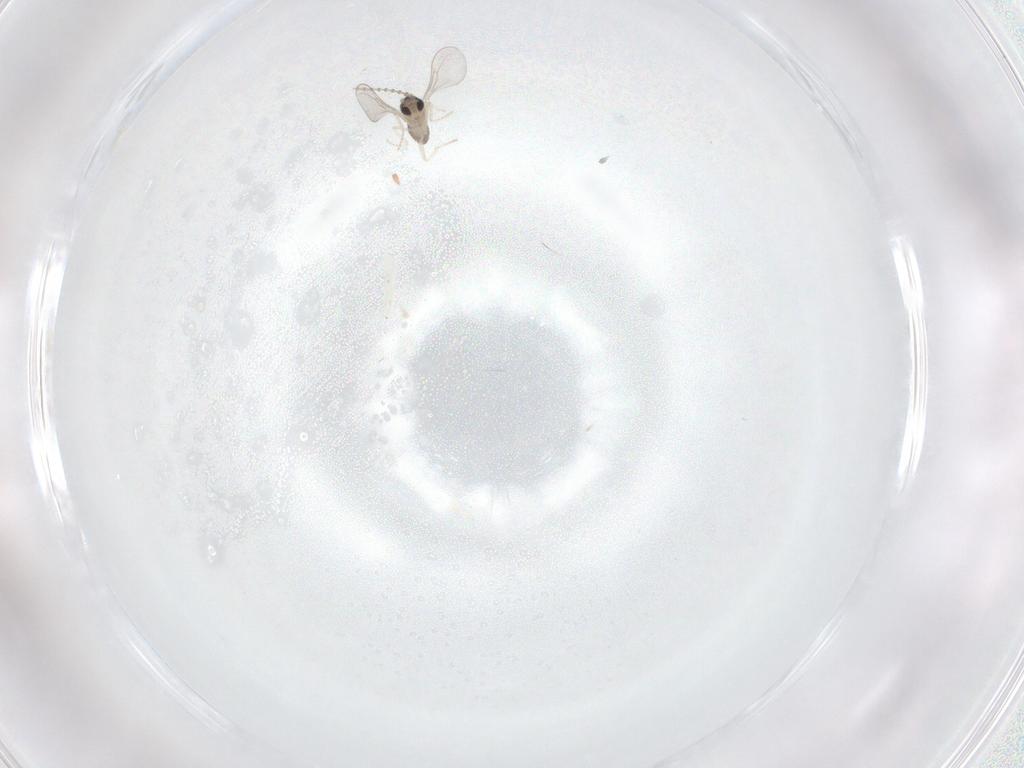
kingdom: Animalia
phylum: Arthropoda
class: Insecta
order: Diptera
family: Cecidomyiidae
